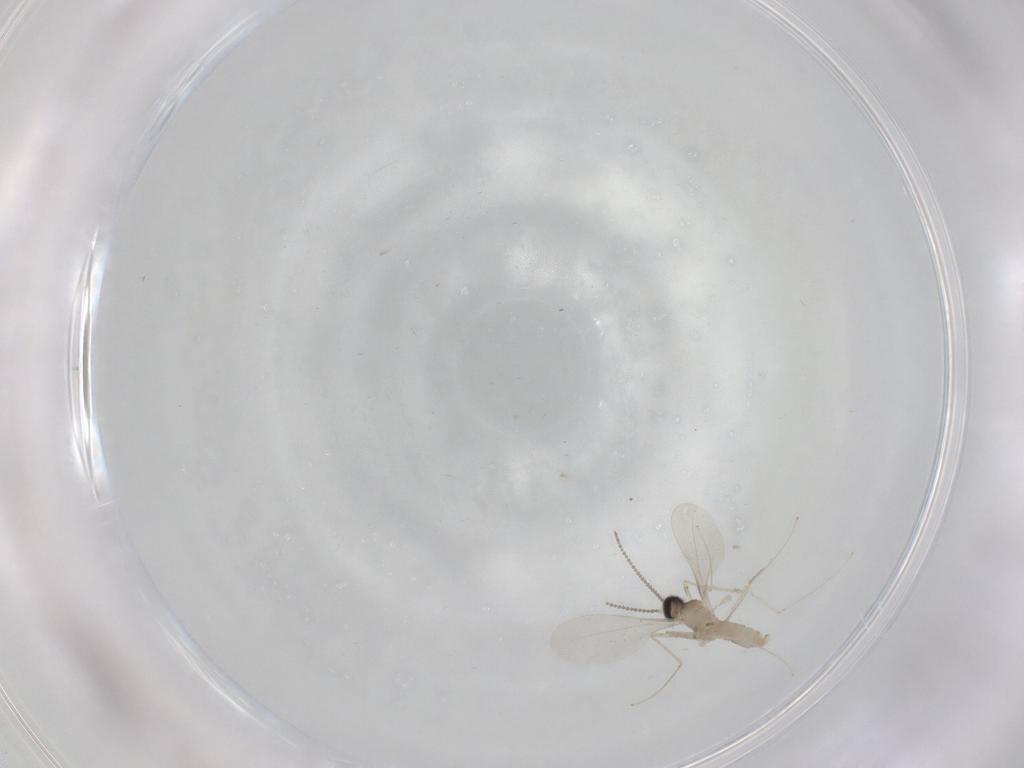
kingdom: Animalia
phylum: Arthropoda
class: Insecta
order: Diptera
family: Cecidomyiidae
